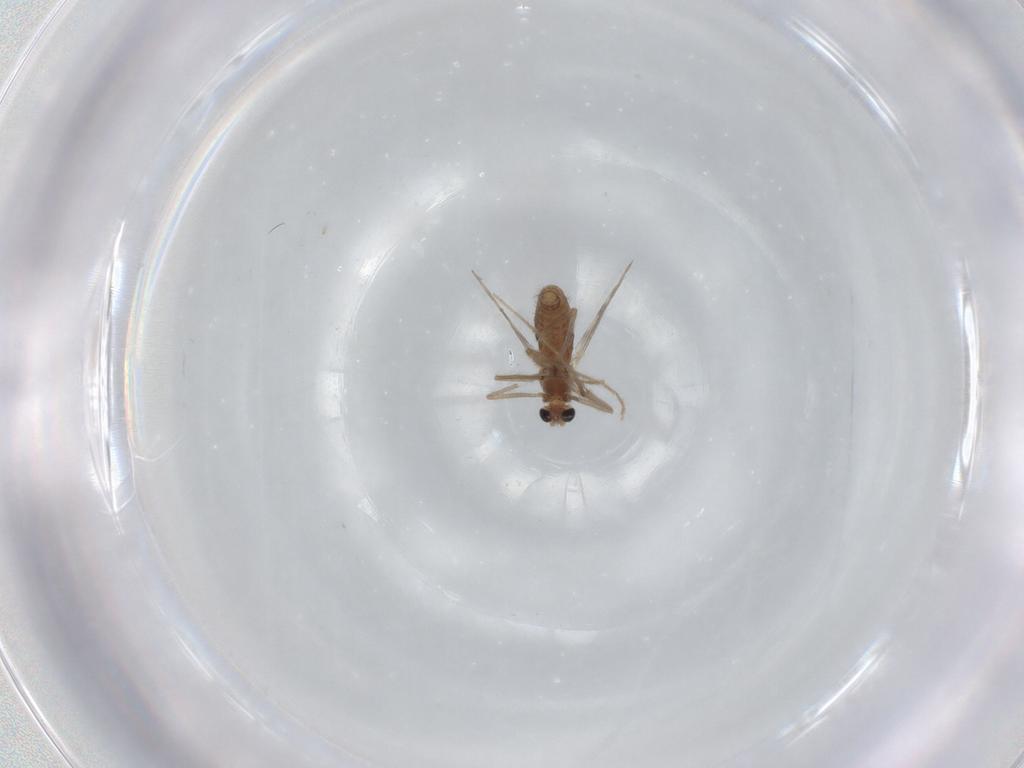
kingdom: Animalia
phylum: Arthropoda
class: Insecta
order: Diptera
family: Chironomidae
